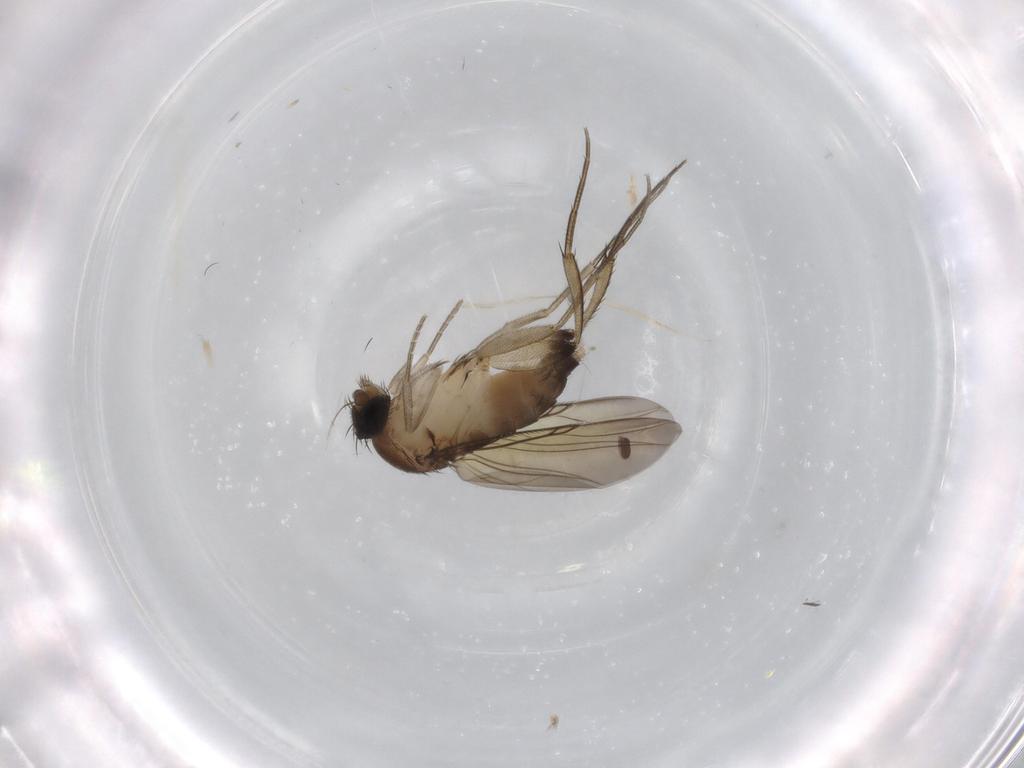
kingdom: Animalia
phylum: Arthropoda
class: Insecta
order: Diptera
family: Phoridae
